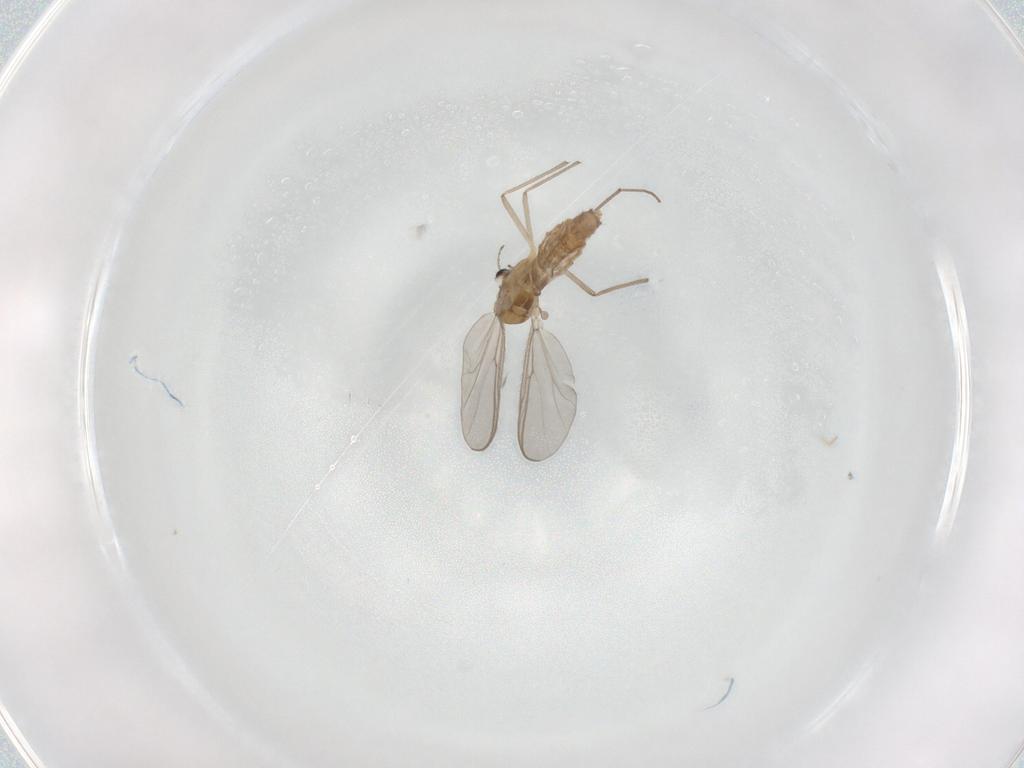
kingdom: Animalia
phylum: Arthropoda
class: Insecta
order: Diptera
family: Chironomidae
